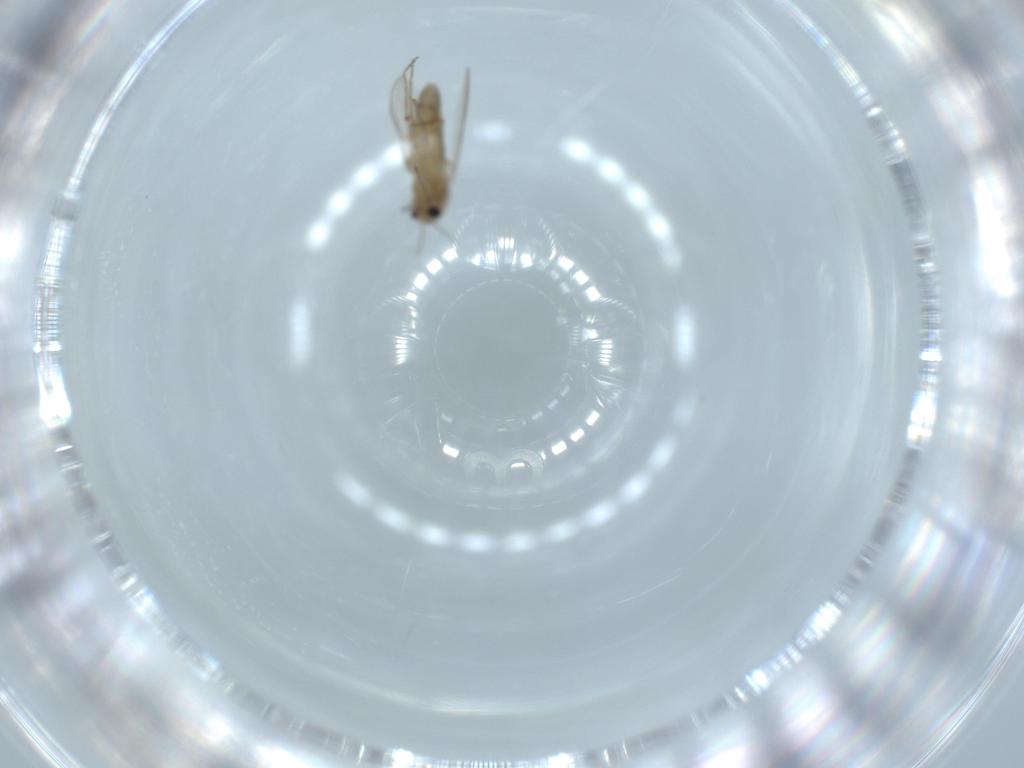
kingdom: Animalia
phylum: Arthropoda
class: Insecta
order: Diptera
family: Chironomidae
